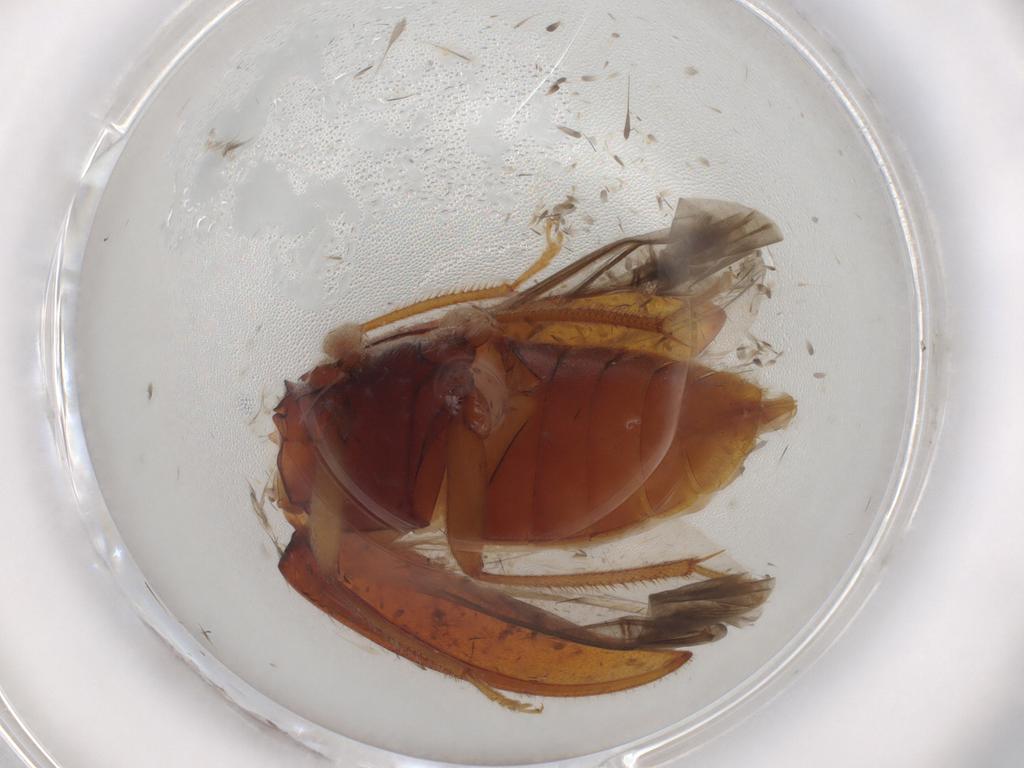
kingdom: Animalia
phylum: Arthropoda
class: Insecta
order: Coleoptera
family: Ptilodactylidae
